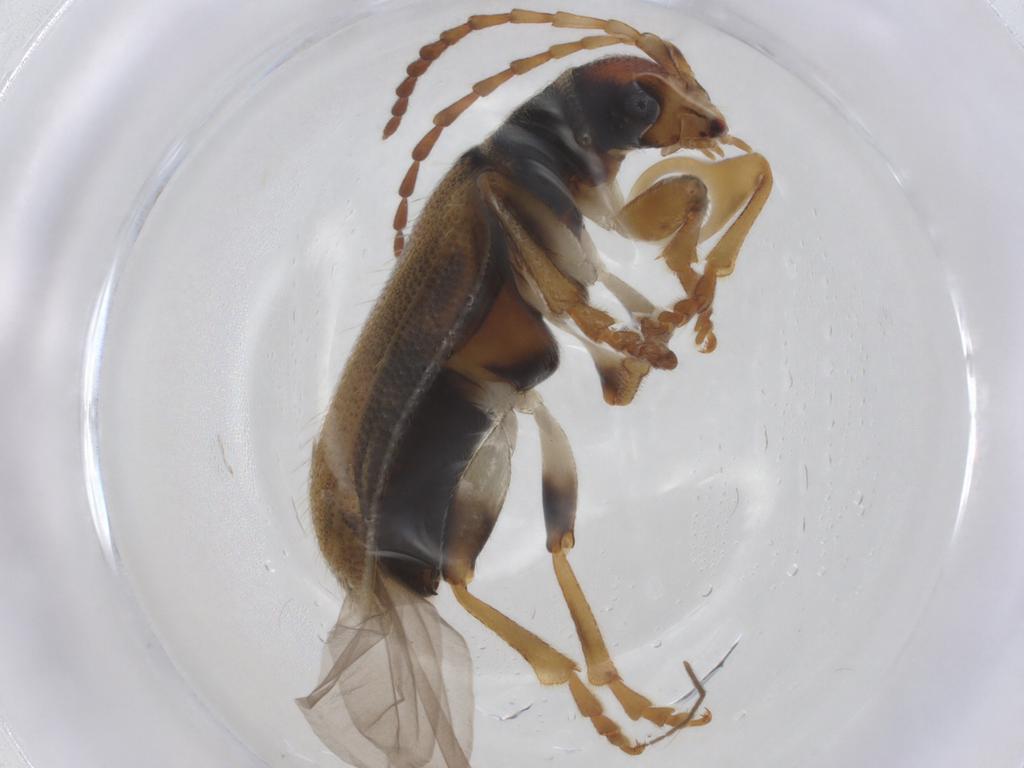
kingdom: Animalia
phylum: Arthropoda
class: Insecta
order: Coleoptera
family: Chrysomelidae
